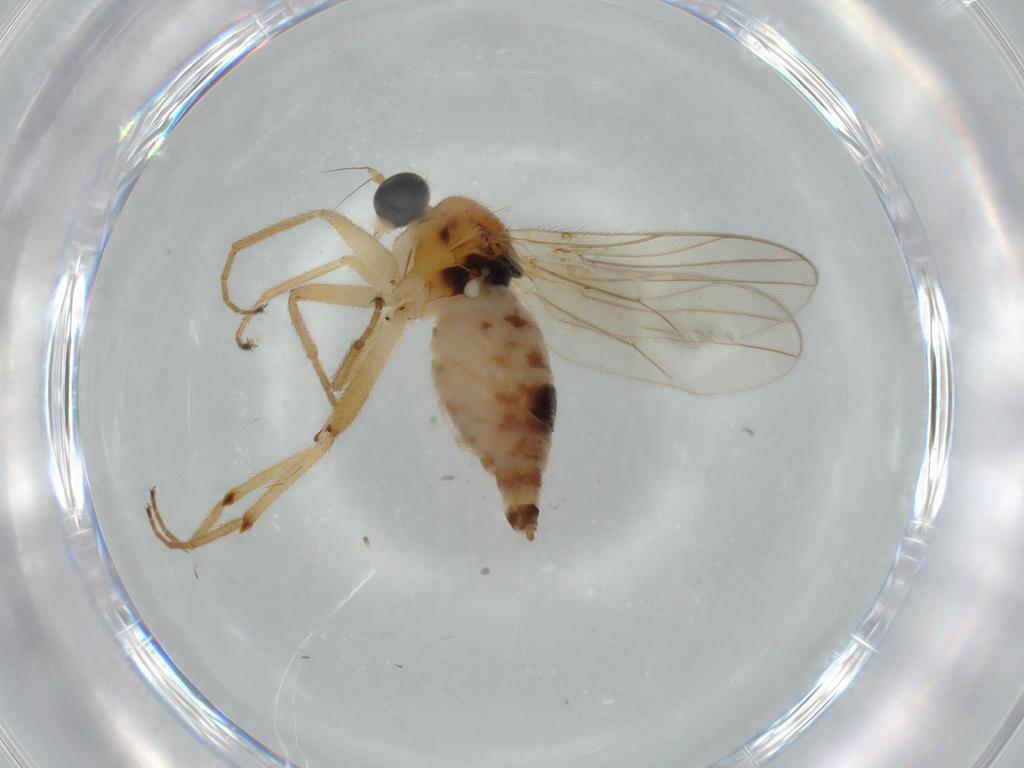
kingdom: Animalia
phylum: Arthropoda
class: Insecta
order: Diptera
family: Hybotidae
